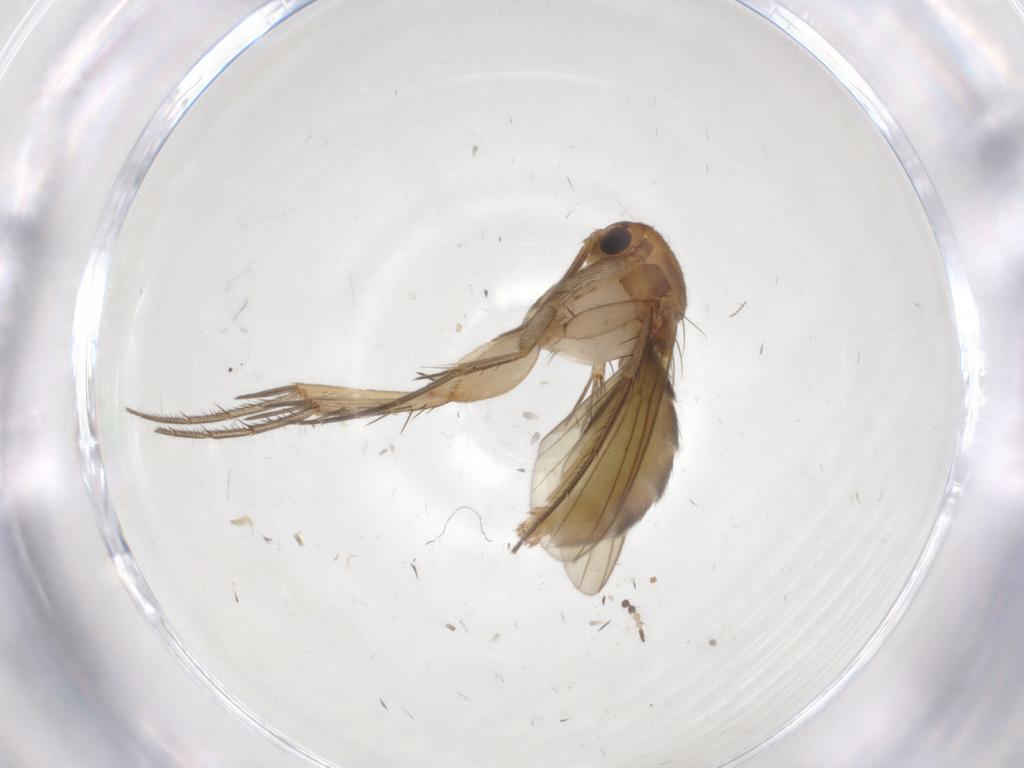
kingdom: Animalia
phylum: Arthropoda
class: Insecta
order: Diptera
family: Mycetophilidae
